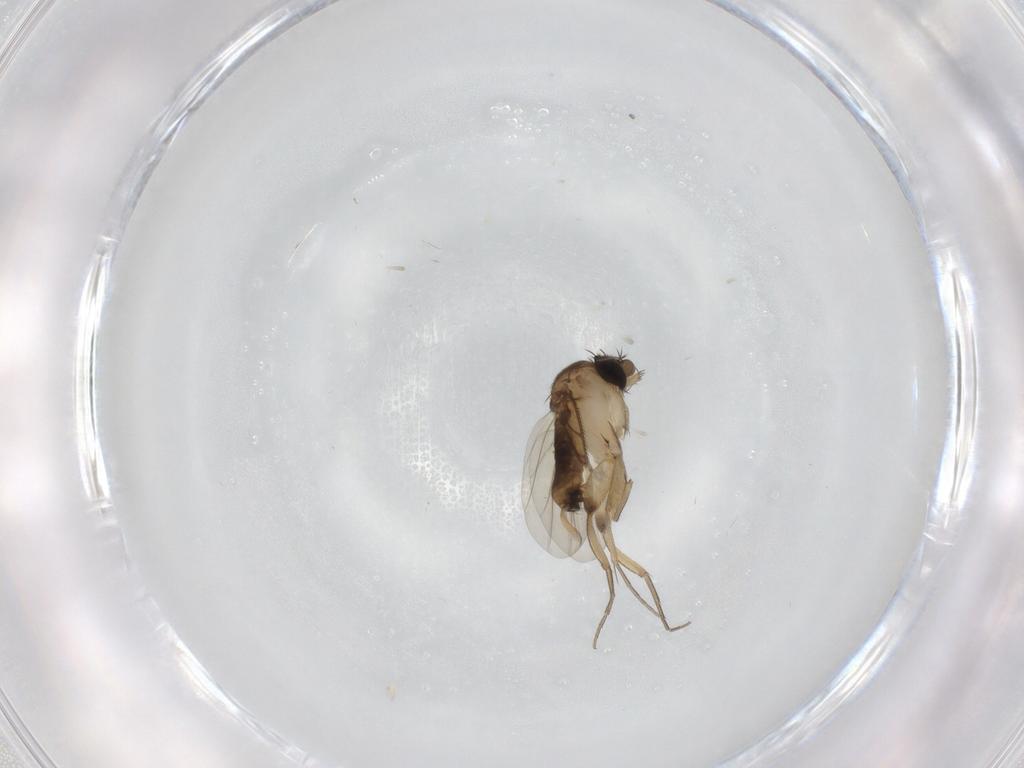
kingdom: Animalia
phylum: Arthropoda
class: Insecta
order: Diptera
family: Phoridae
